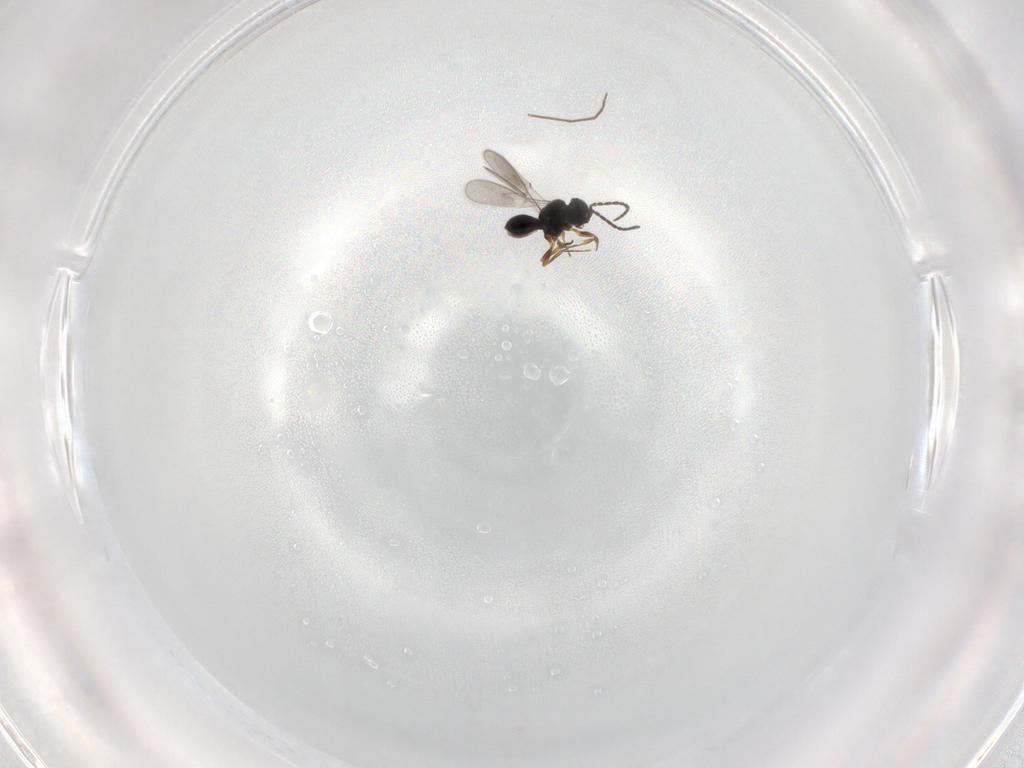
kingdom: Animalia
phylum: Arthropoda
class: Insecta
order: Hymenoptera
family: Scelionidae
